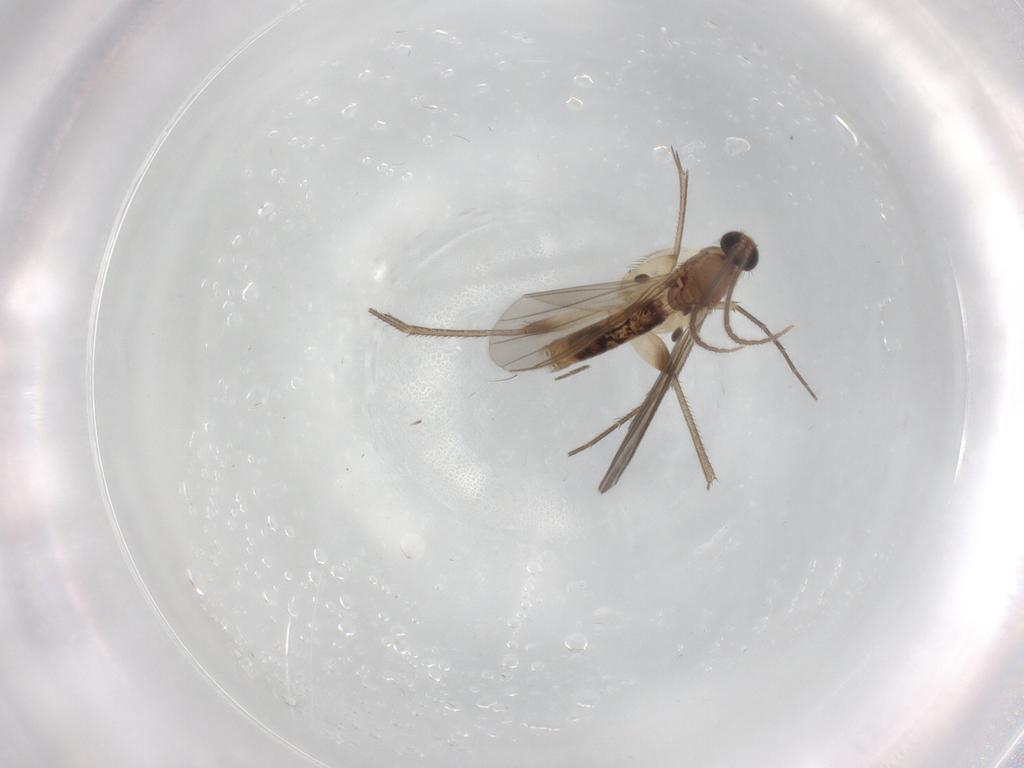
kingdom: Animalia
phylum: Arthropoda
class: Insecta
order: Diptera
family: Mycetophilidae
